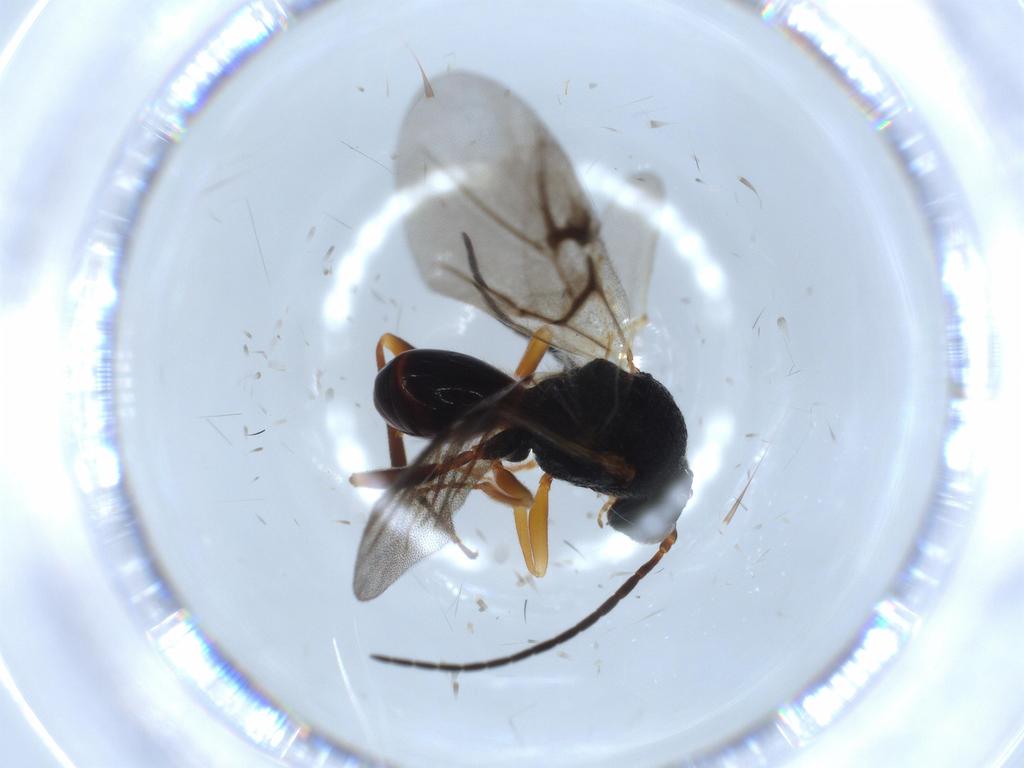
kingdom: Animalia
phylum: Arthropoda
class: Insecta
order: Hymenoptera
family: Cynipidae
